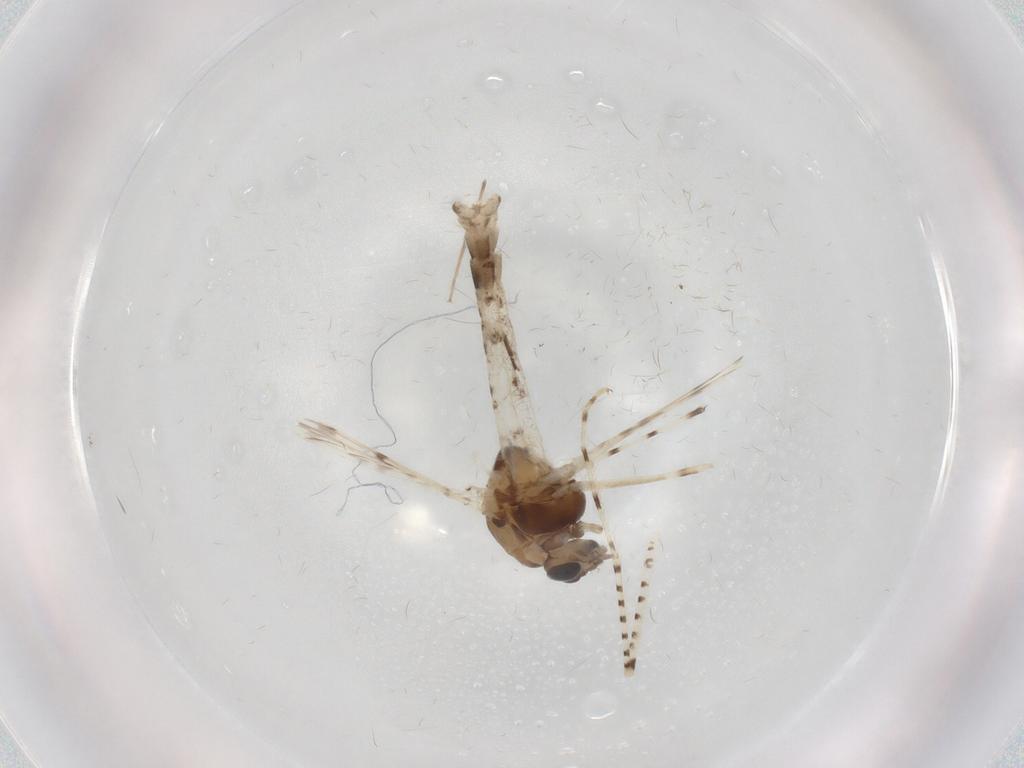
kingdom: Animalia
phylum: Arthropoda
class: Insecta
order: Diptera
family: Chironomidae
